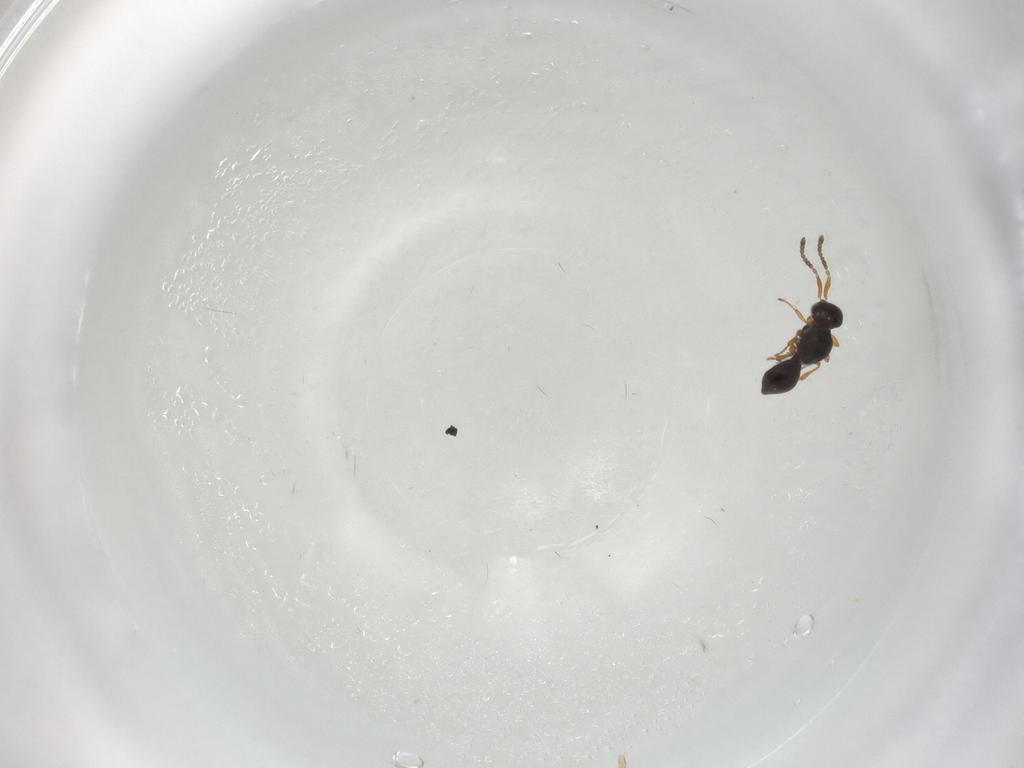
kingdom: Animalia
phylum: Arthropoda
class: Insecta
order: Hymenoptera
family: Platygastridae
